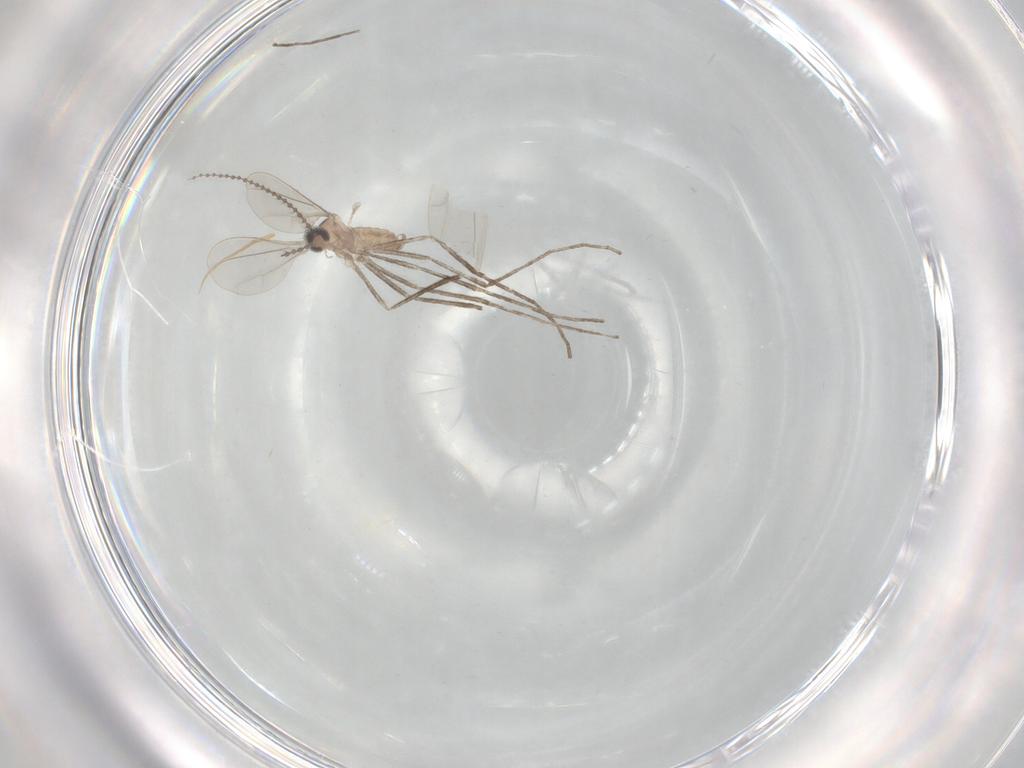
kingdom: Animalia
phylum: Arthropoda
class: Insecta
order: Diptera
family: Cecidomyiidae
